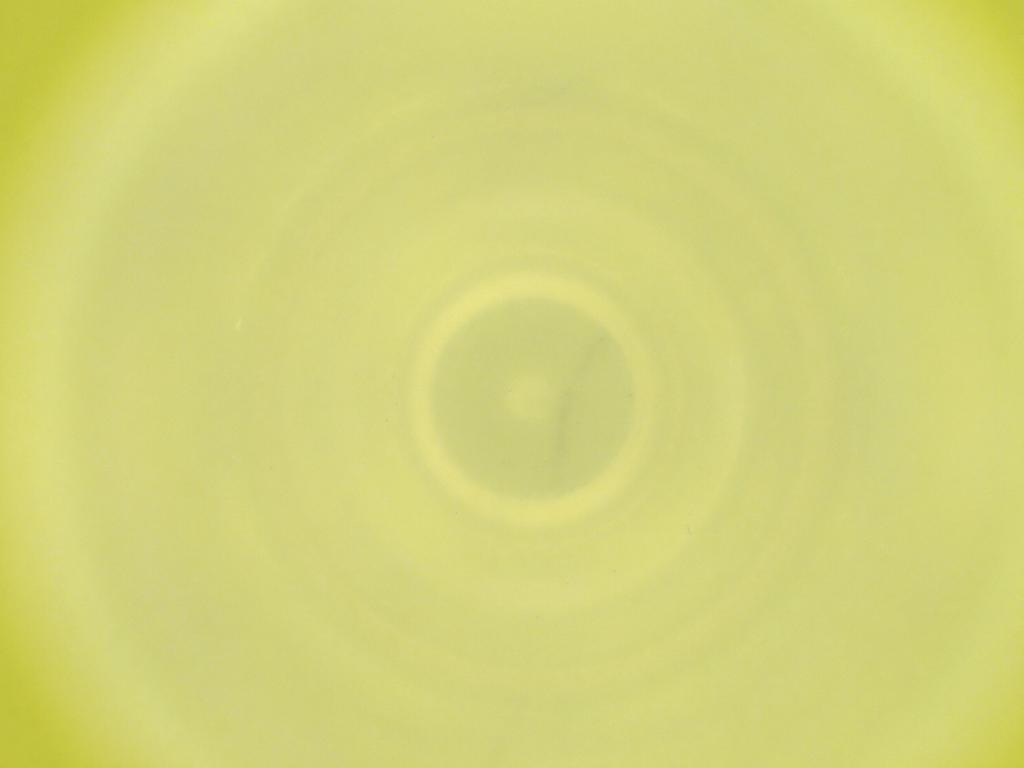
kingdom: Animalia
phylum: Arthropoda
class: Insecta
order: Diptera
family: Cecidomyiidae
